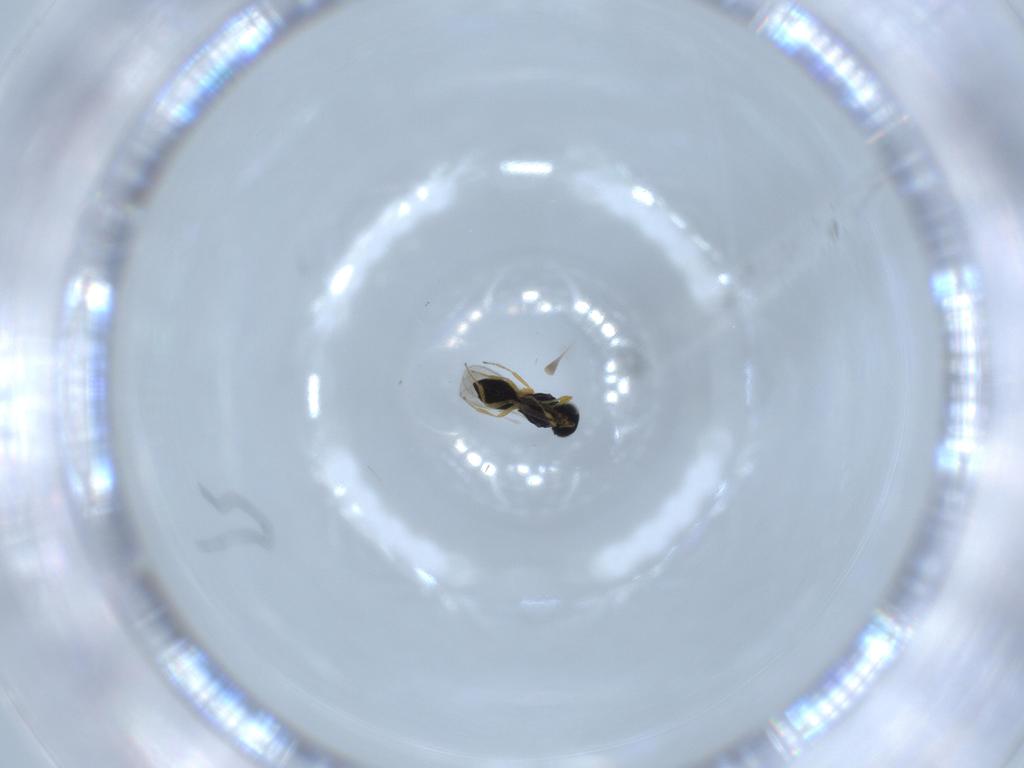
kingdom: Animalia
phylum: Arthropoda
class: Insecta
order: Hymenoptera
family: Scelionidae
